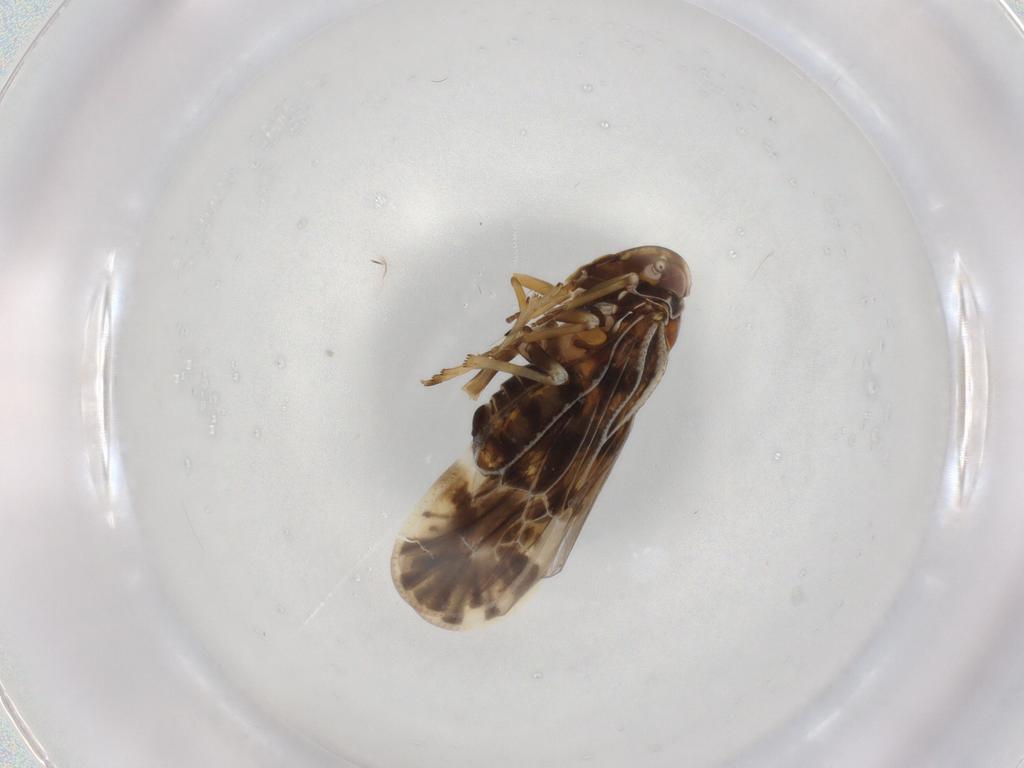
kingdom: Animalia
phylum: Arthropoda
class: Insecta
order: Hemiptera
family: Meenoplidae
